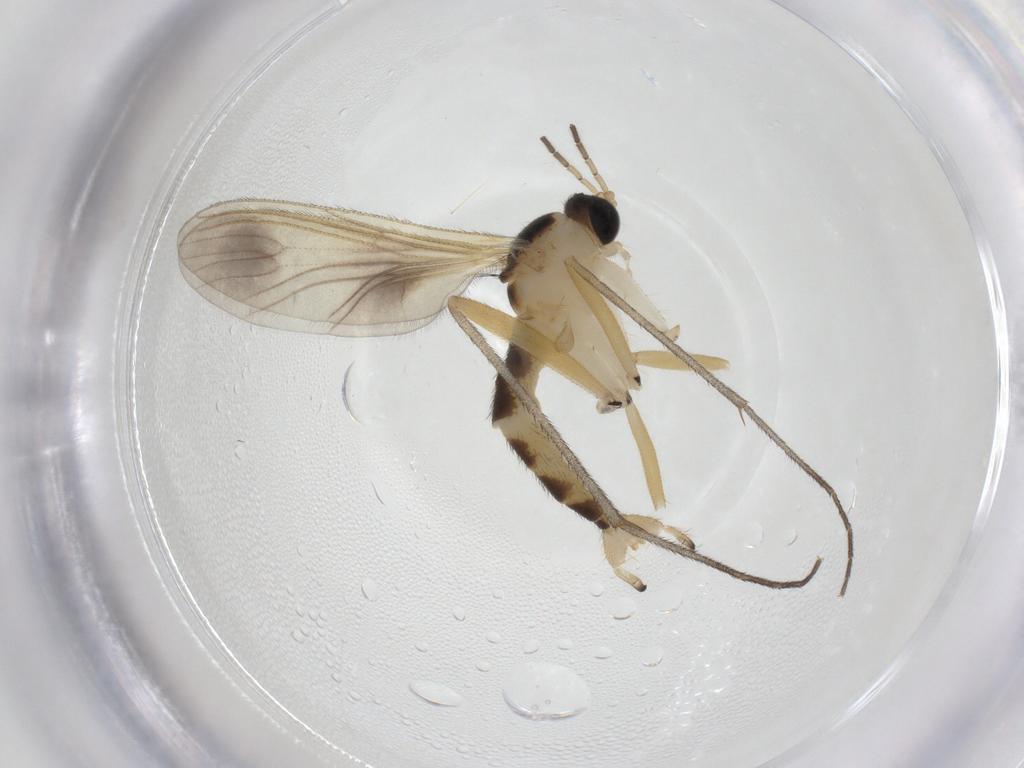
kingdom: Animalia
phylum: Arthropoda
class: Insecta
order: Diptera
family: Sciaridae
